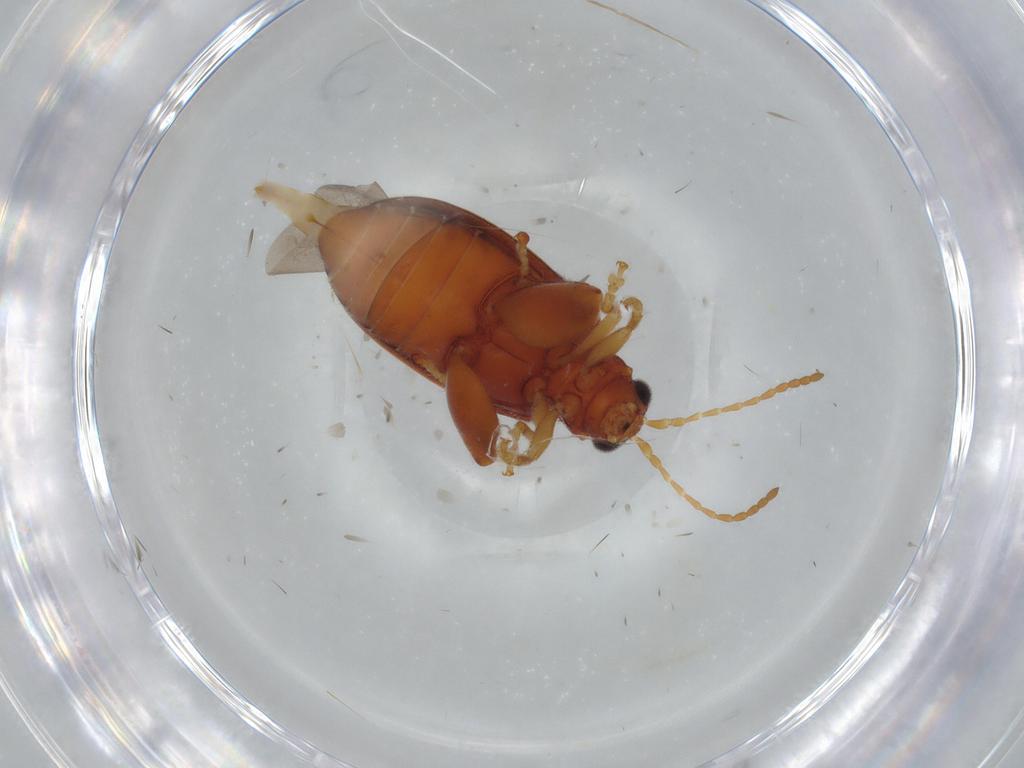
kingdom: Animalia
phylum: Arthropoda
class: Insecta
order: Coleoptera
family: Chrysomelidae
